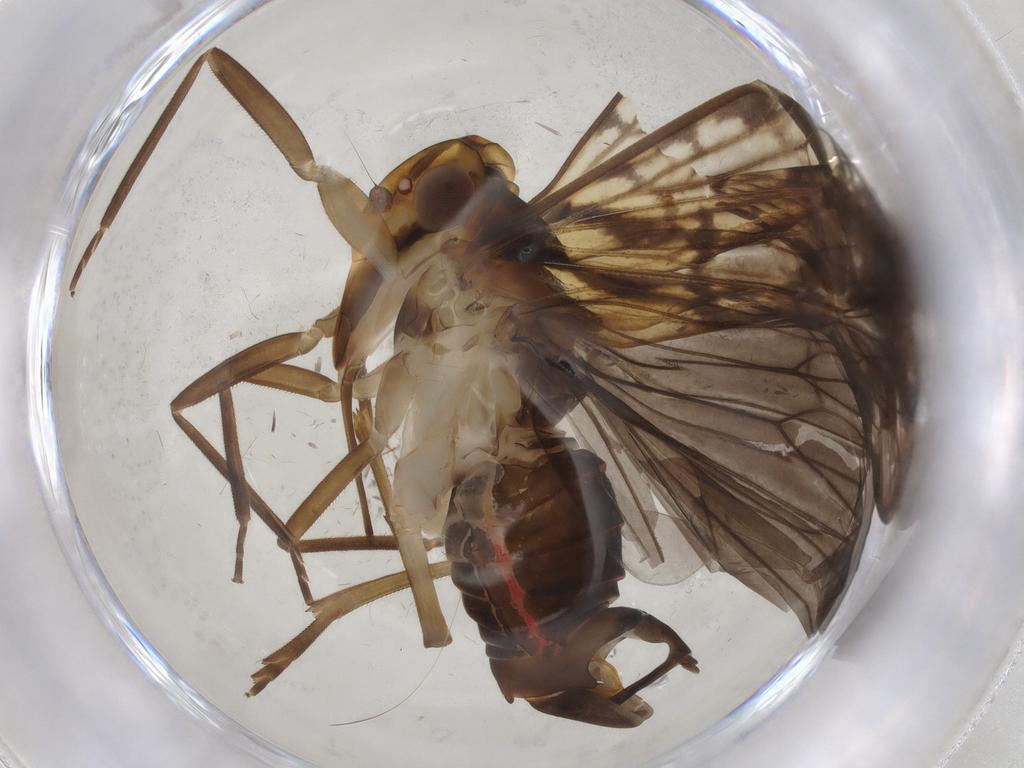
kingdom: Animalia
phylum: Arthropoda
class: Insecta
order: Hemiptera
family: Cixiidae
